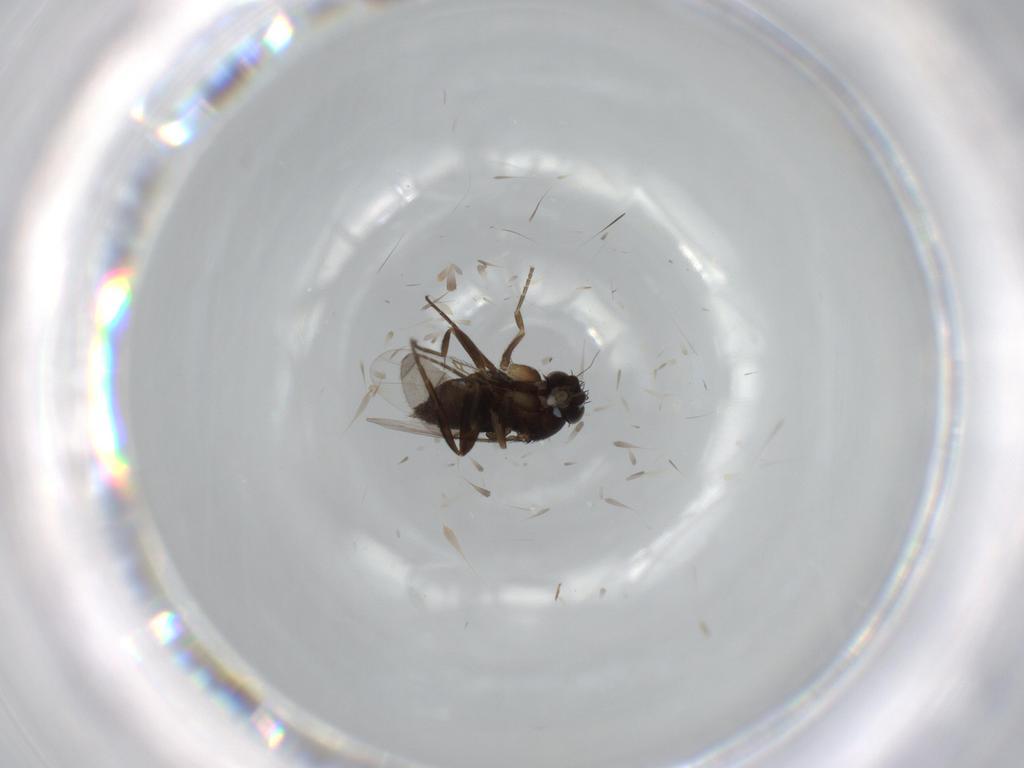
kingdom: Animalia
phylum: Arthropoda
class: Insecta
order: Diptera
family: Phoridae
